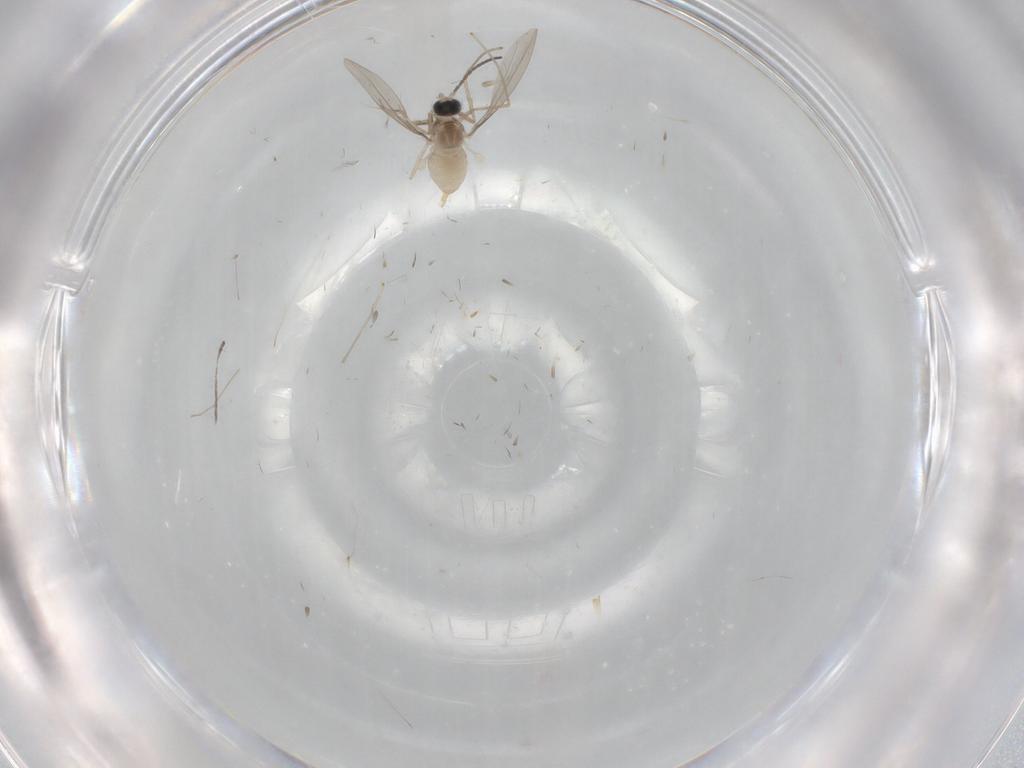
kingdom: Animalia
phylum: Arthropoda
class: Insecta
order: Diptera
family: Cecidomyiidae
